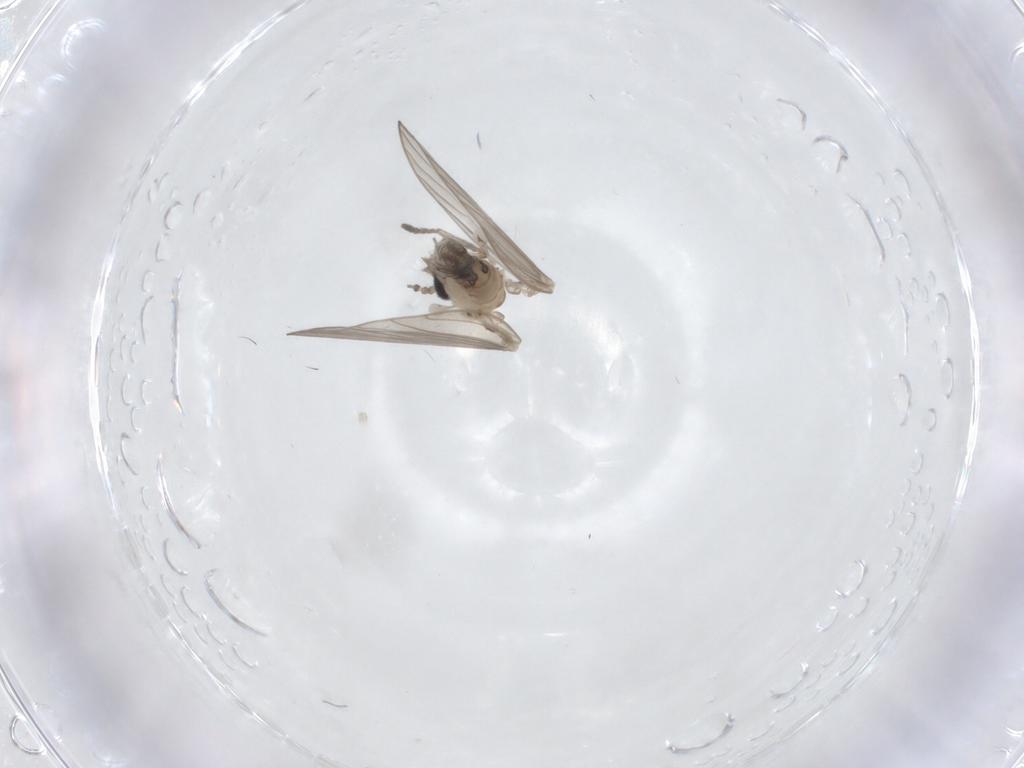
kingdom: Animalia
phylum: Arthropoda
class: Insecta
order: Diptera
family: Psychodidae
